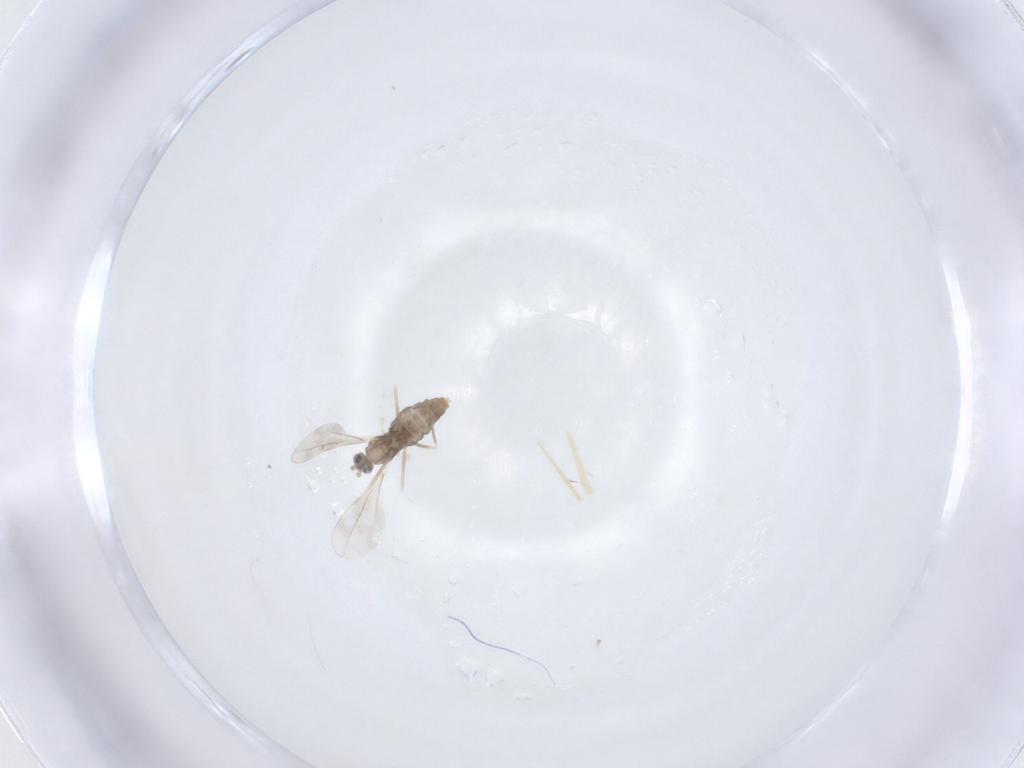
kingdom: Animalia
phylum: Arthropoda
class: Insecta
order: Diptera
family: Cecidomyiidae
